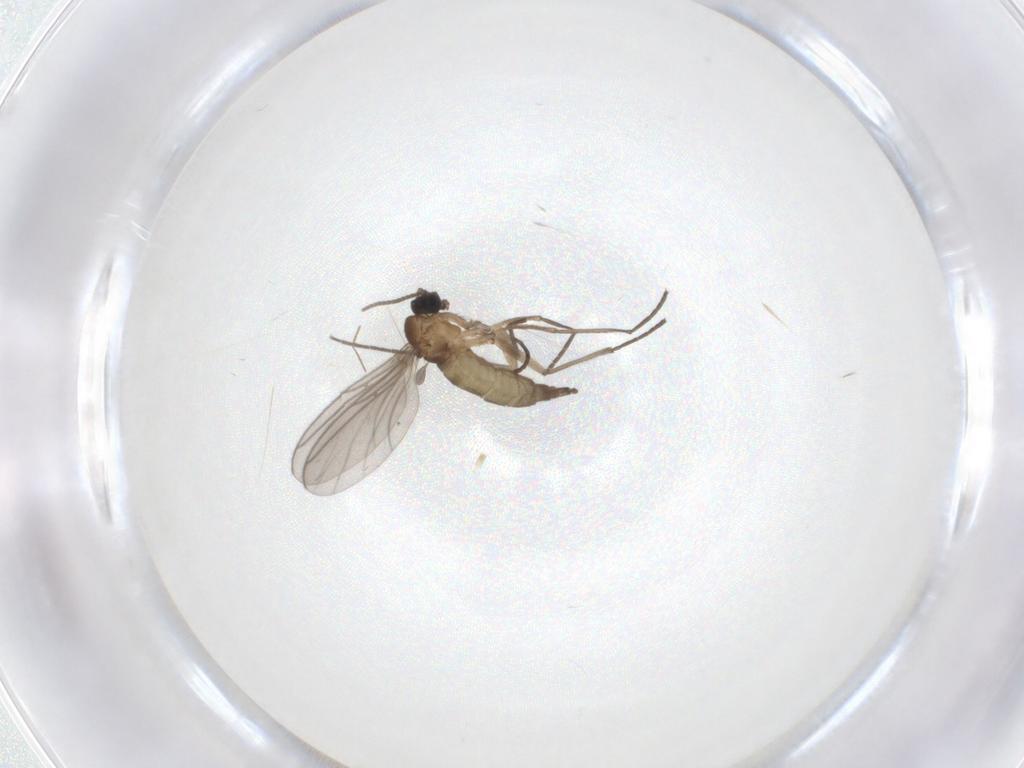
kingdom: Animalia
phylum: Arthropoda
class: Insecta
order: Diptera
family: Sciaridae
